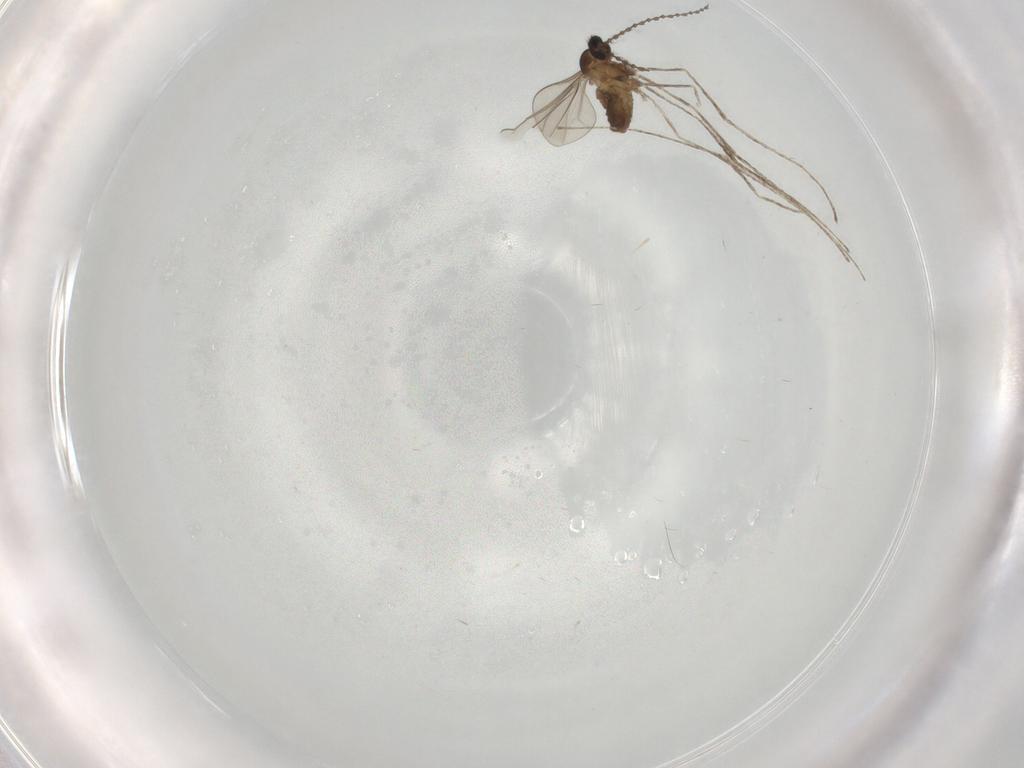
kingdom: Animalia
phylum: Arthropoda
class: Insecta
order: Diptera
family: Cecidomyiidae
